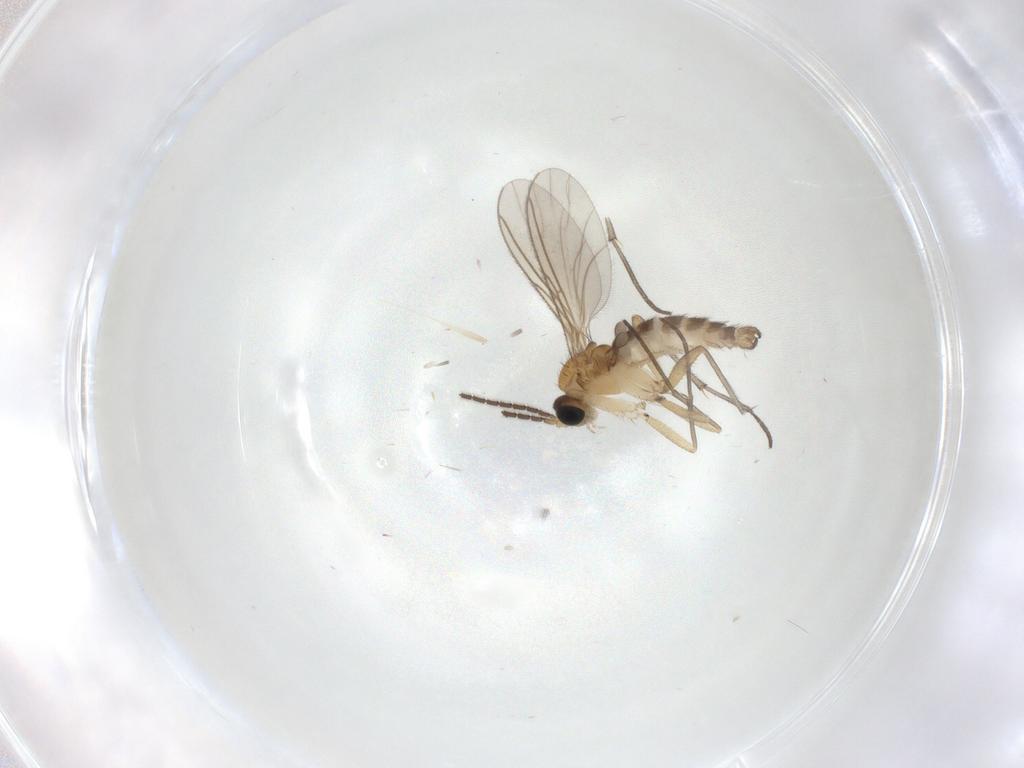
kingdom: Animalia
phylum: Arthropoda
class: Insecta
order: Diptera
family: Sciaridae
